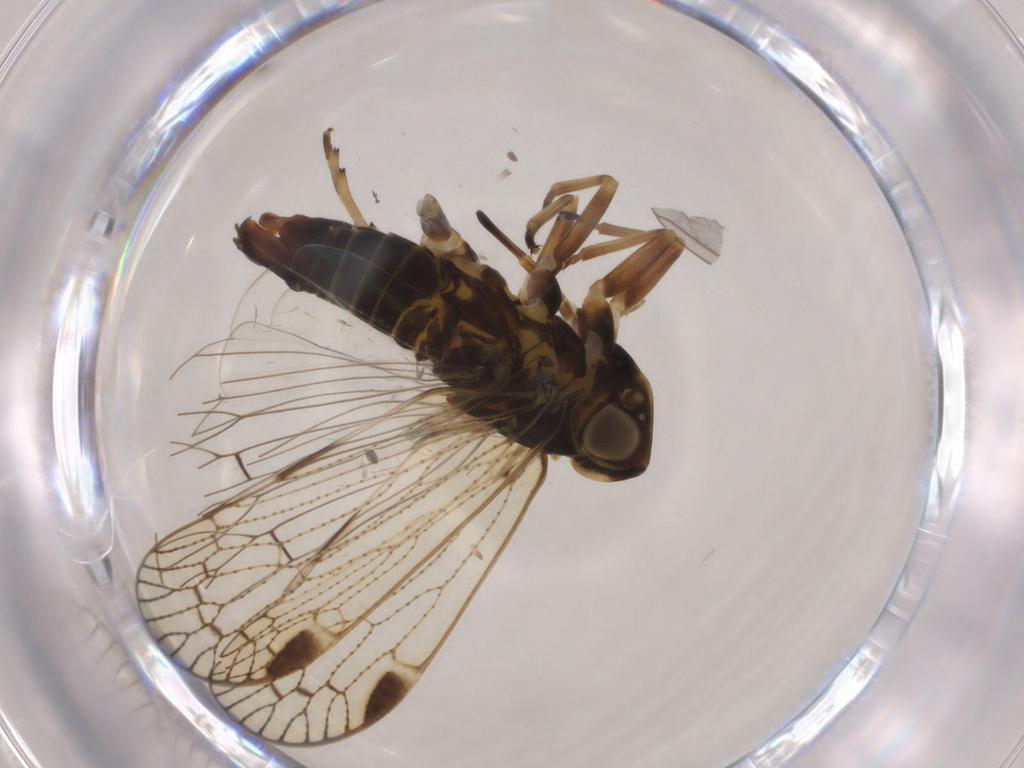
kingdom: Animalia
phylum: Arthropoda
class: Insecta
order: Hemiptera
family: Cixiidae
